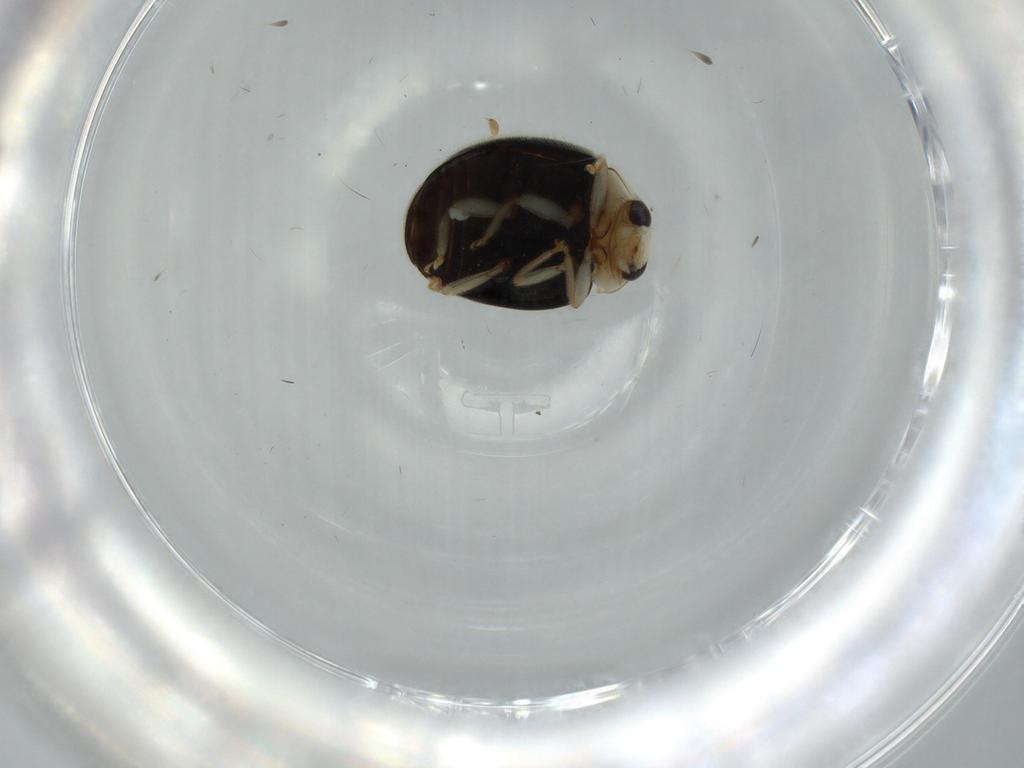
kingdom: Animalia
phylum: Arthropoda
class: Insecta
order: Coleoptera
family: Coccinellidae
